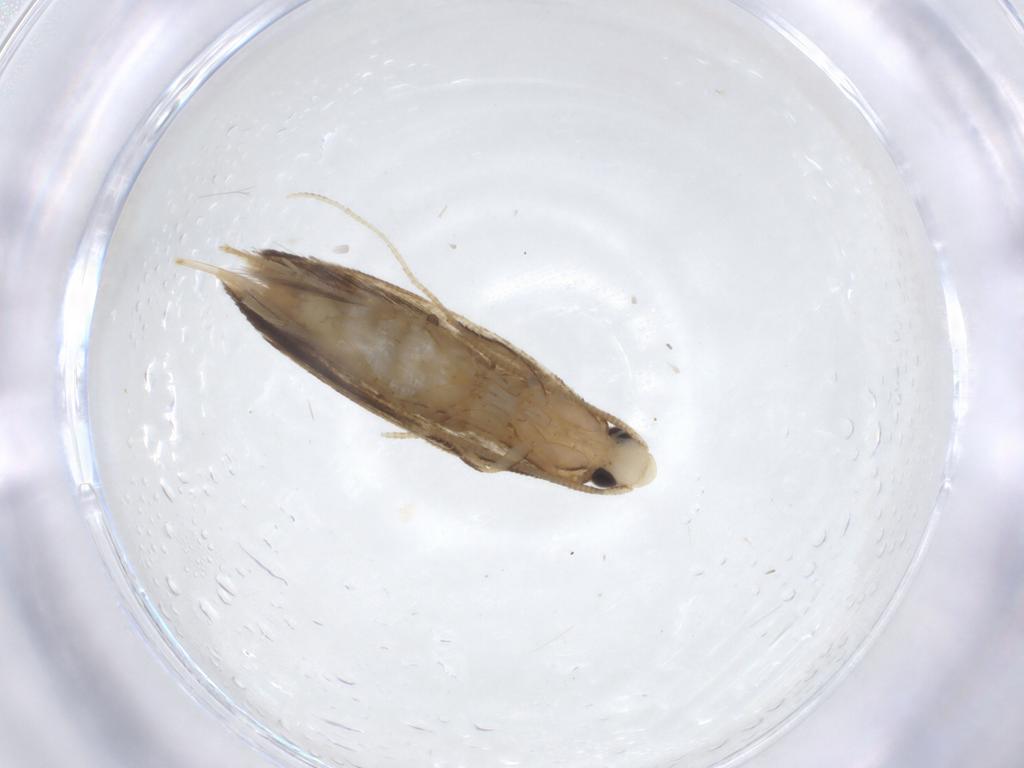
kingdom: Animalia
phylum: Arthropoda
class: Insecta
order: Lepidoptera
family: Tineidae
